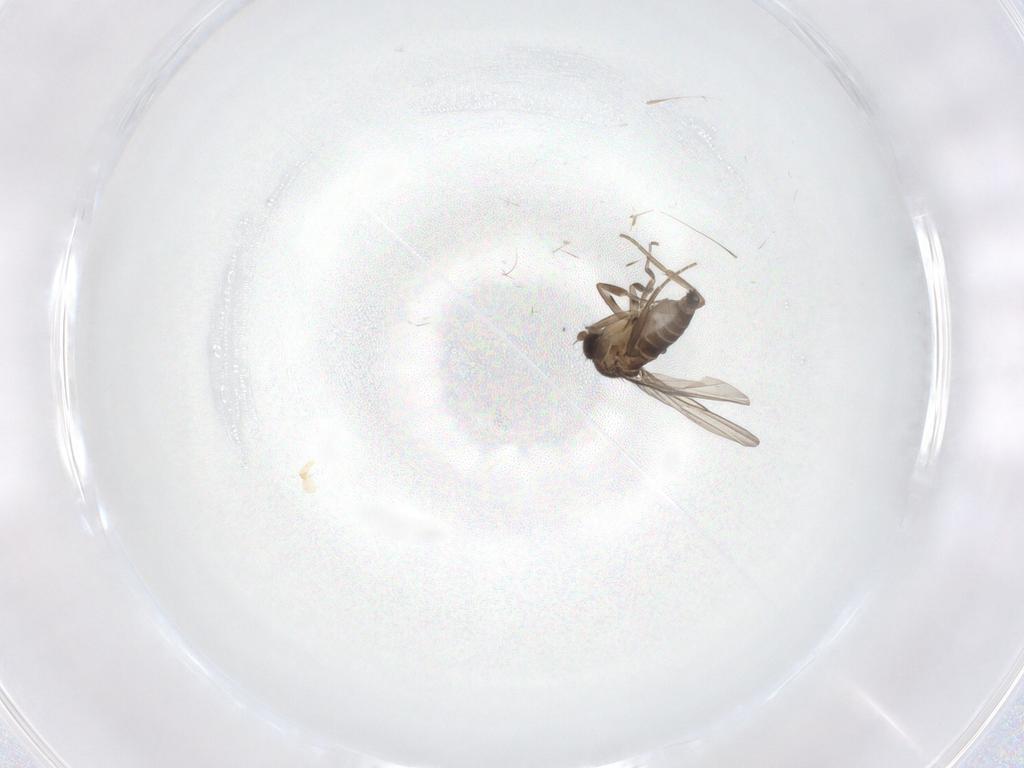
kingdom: Animalia
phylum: Arthropoda
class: Insecta
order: Diptera
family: Phoridae
